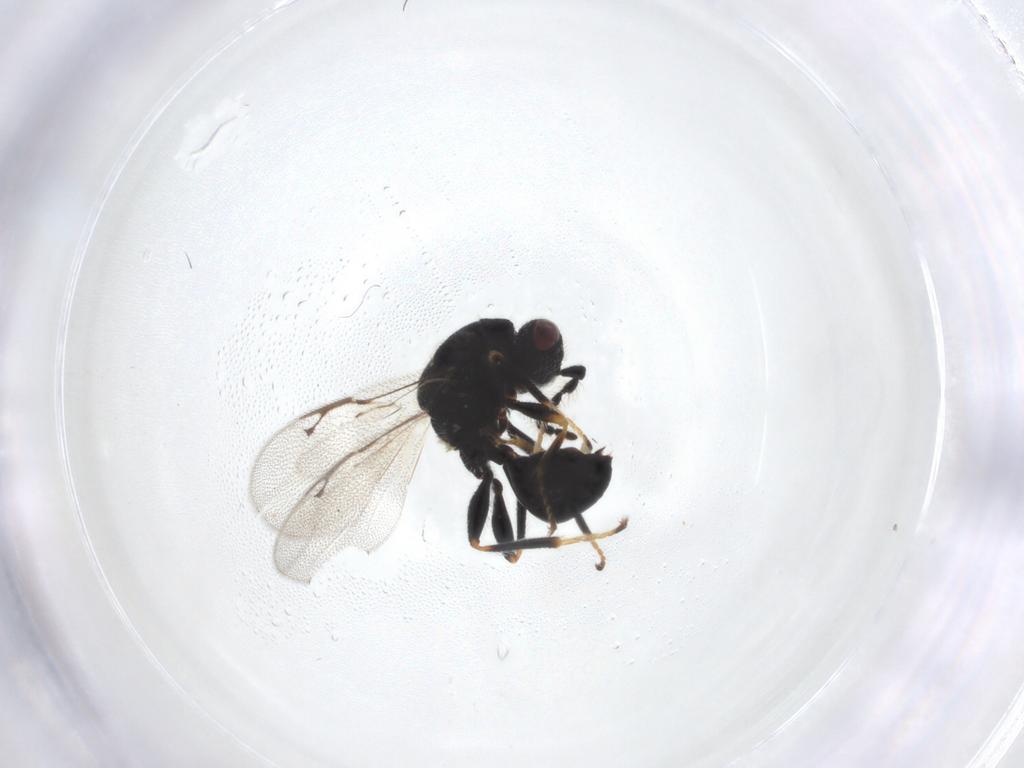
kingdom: Animalia
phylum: Arthropoda
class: Insecta
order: Hymenoptera
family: Eurytomidae
